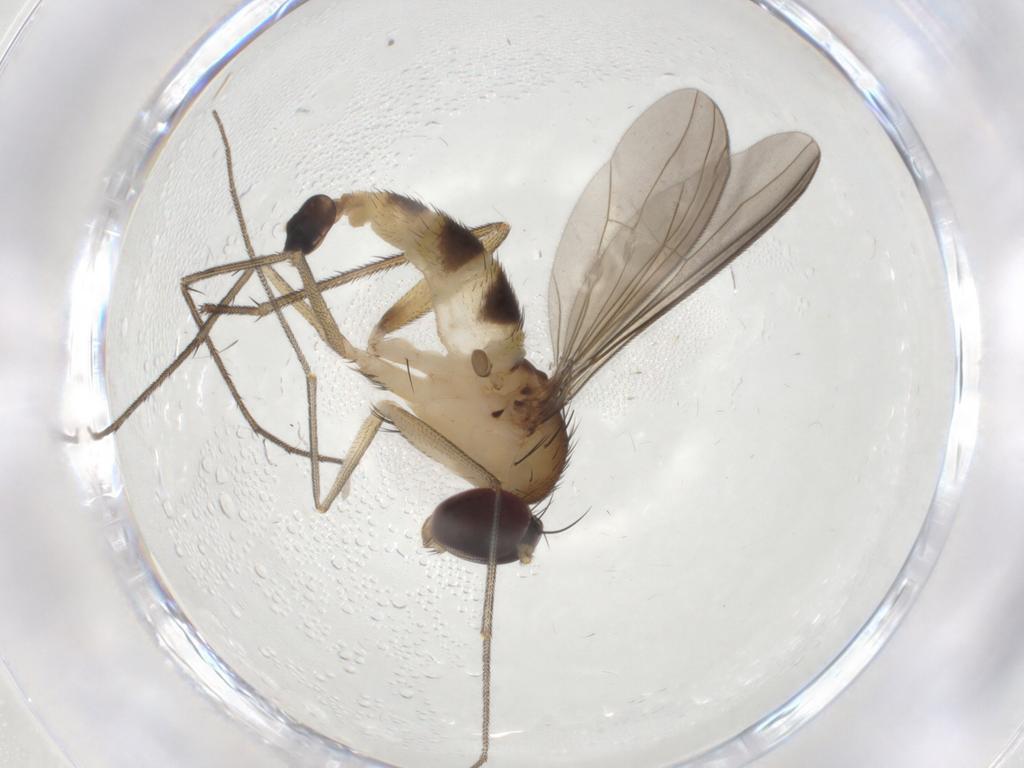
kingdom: Animalia
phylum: Arthropoda
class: Insecta
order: Diptera
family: Dolichopodidae
